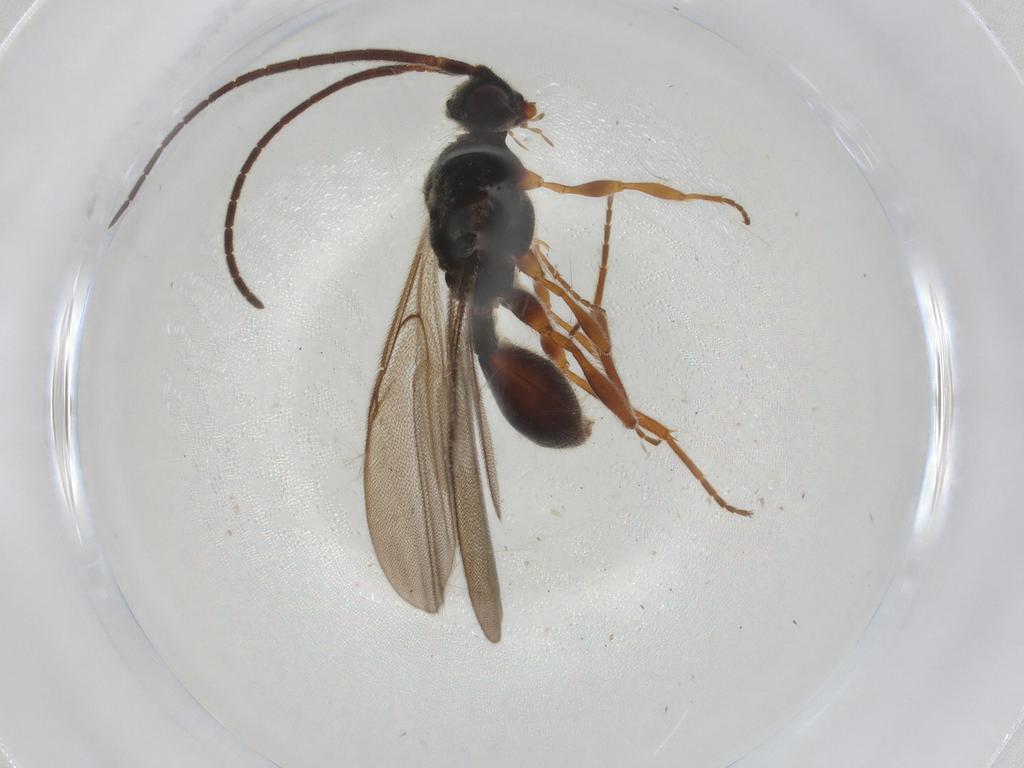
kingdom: Animalia
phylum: Arthropoda
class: Insecta
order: Hymenoptera
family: Diapriidae
